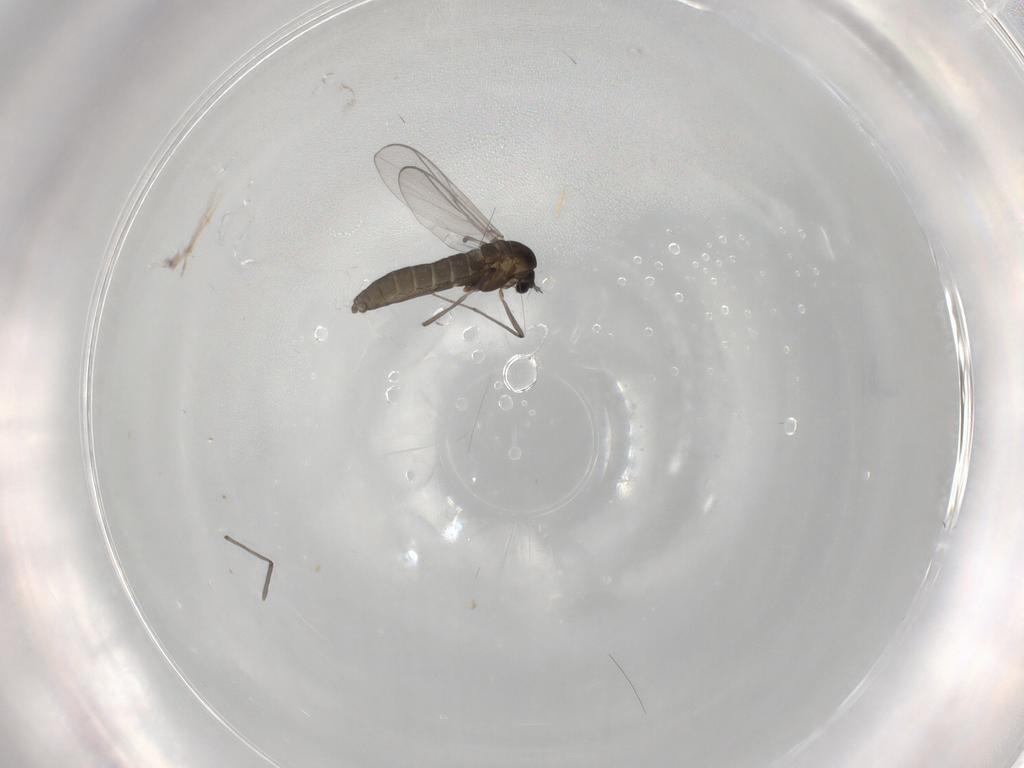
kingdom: Animalia
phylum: Arthropoda
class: Insecta
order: Diptera
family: Chironomidae
